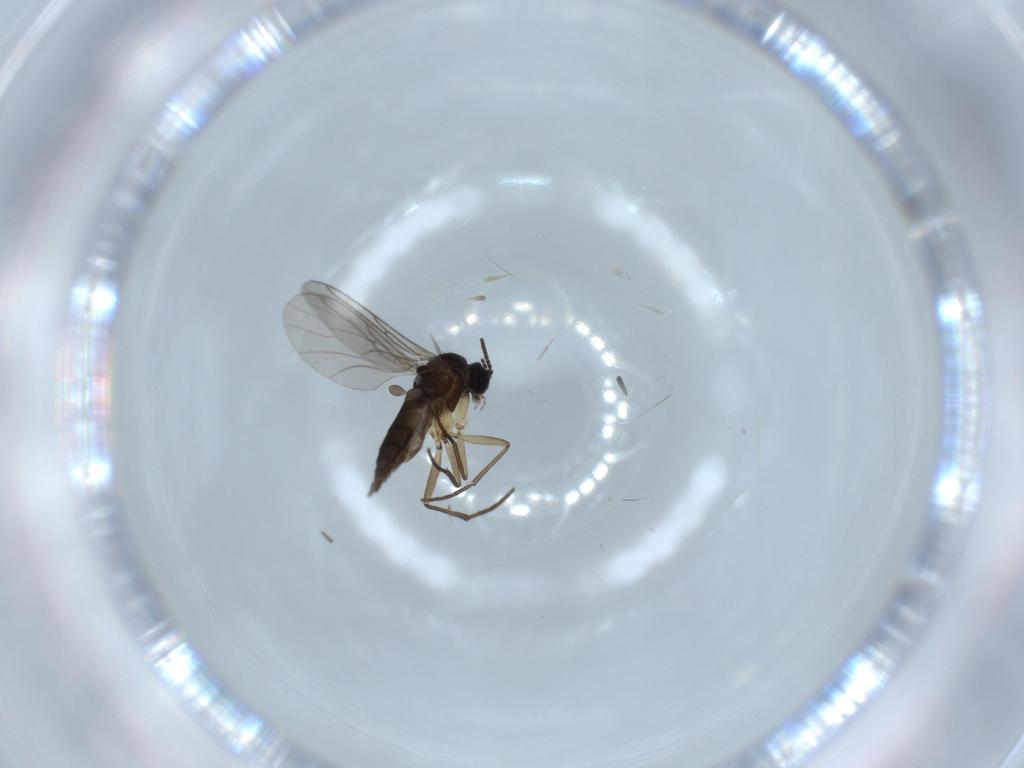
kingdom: Animalia
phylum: Arthropoda
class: Insecta
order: Diptera
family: Sciaridae
